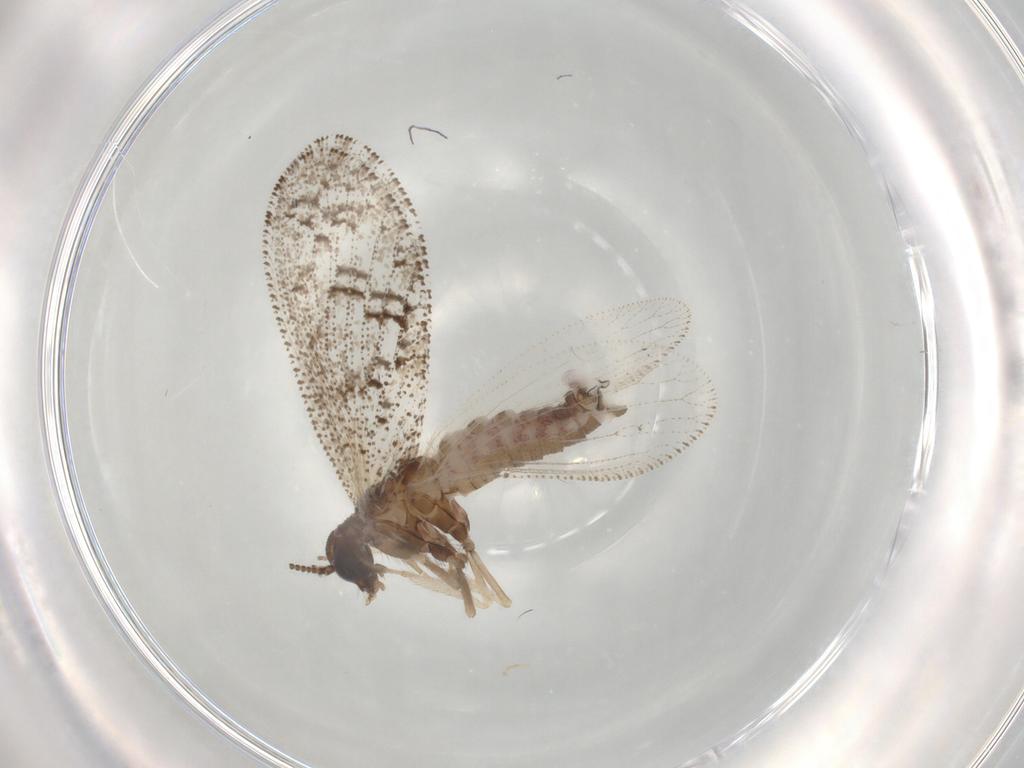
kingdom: Animalia
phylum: Arthropoda
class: Insecta
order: Neuroptera
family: Hemerobiidae
